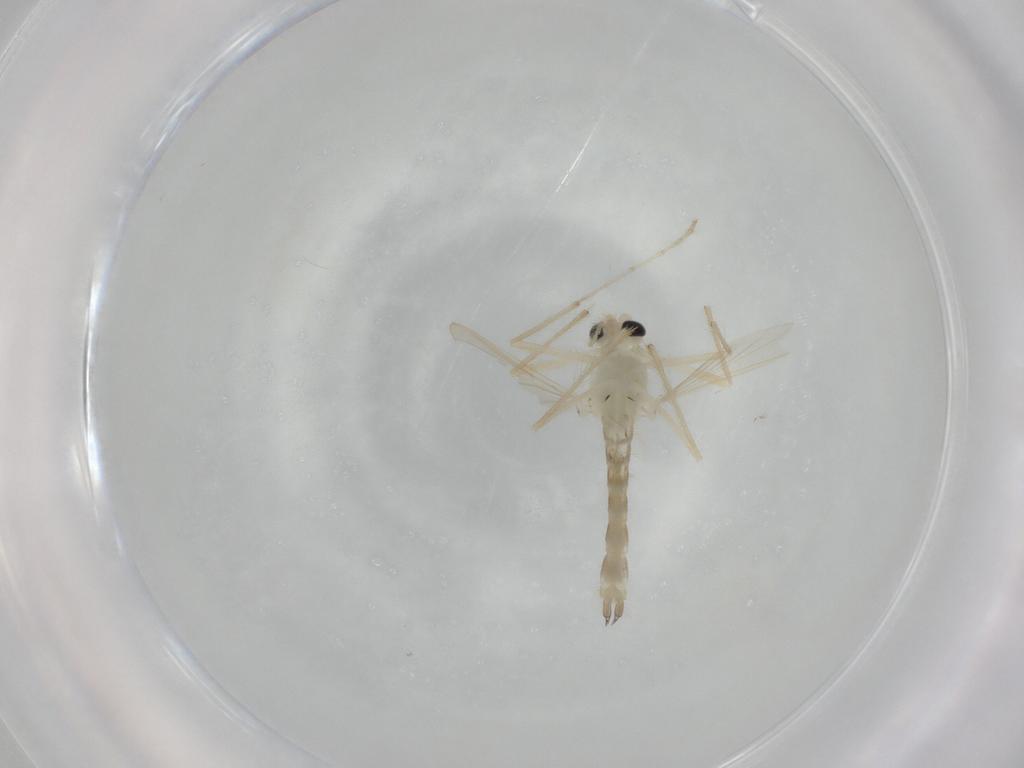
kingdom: Animalia
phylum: Arthropoda
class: Insecta
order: Diptera
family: Chironomidae
